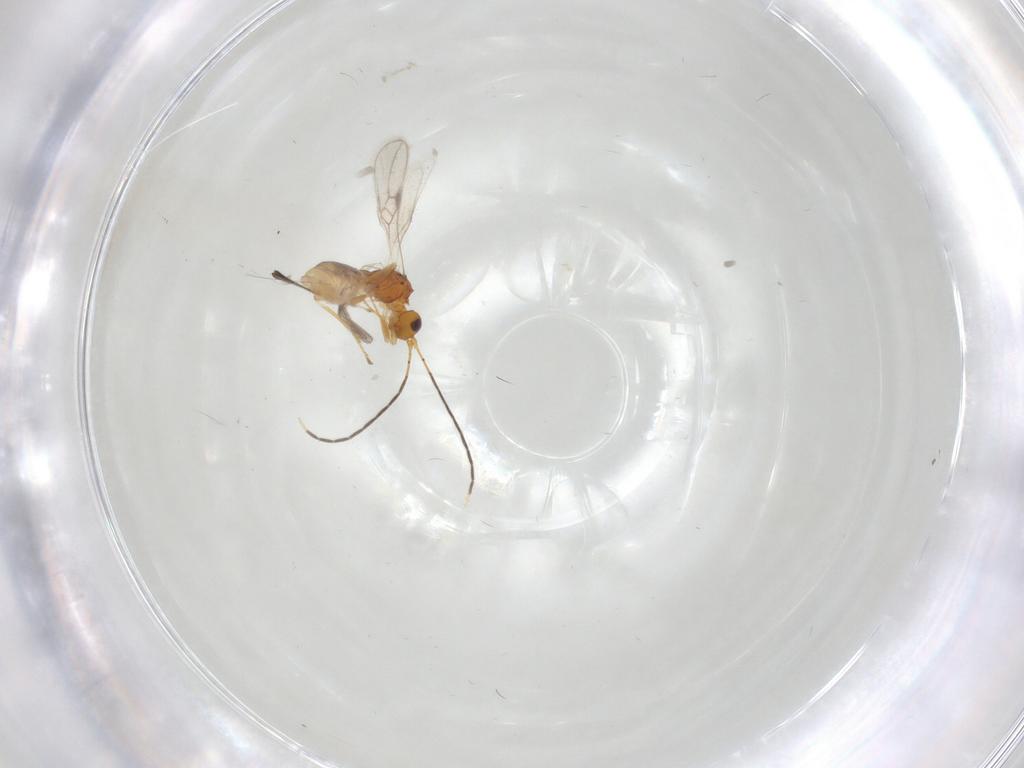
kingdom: Animalia
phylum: Arthropoda
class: Insecta
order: Hymenoptera
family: Braconidae
